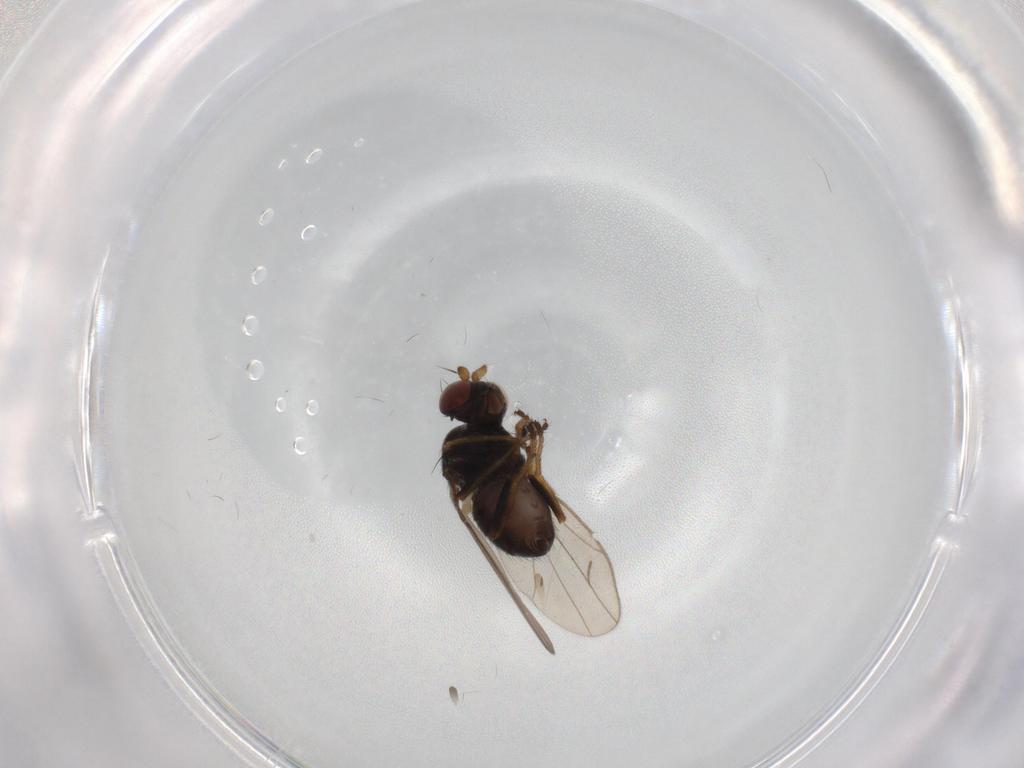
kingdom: Animalia
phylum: Arthropoda
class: Insecta
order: Diptera
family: Ephydridae
